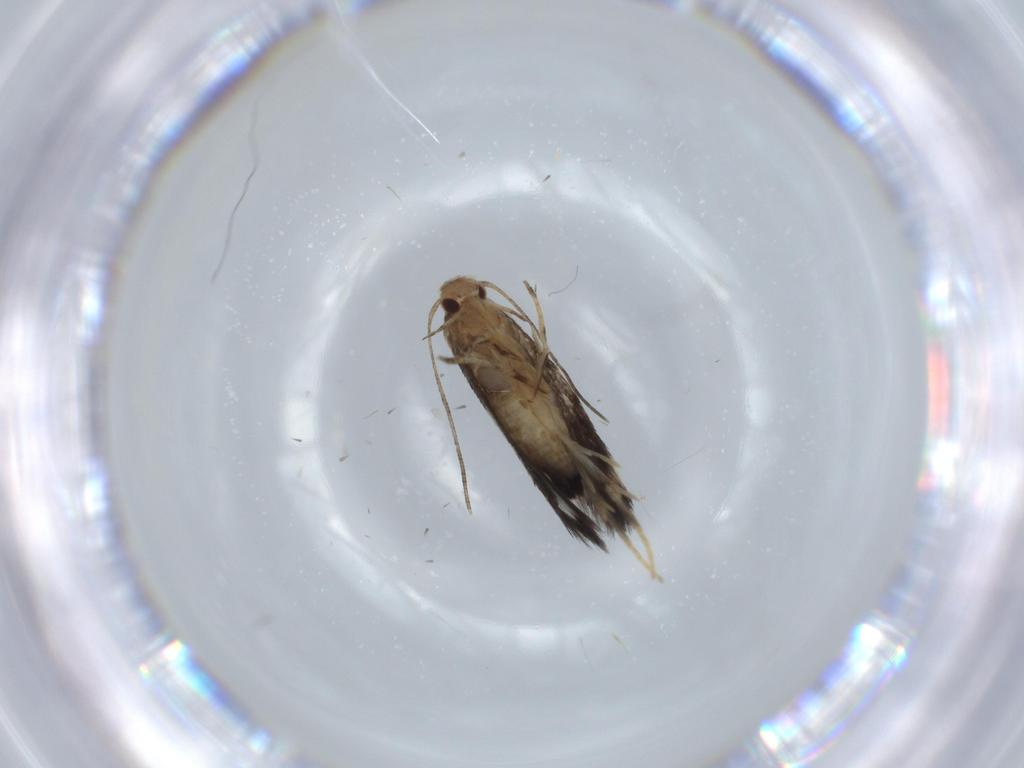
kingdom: Animalia
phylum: Arthropoda
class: Insecta
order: Lepidoptera
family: Cosmopterigidae
